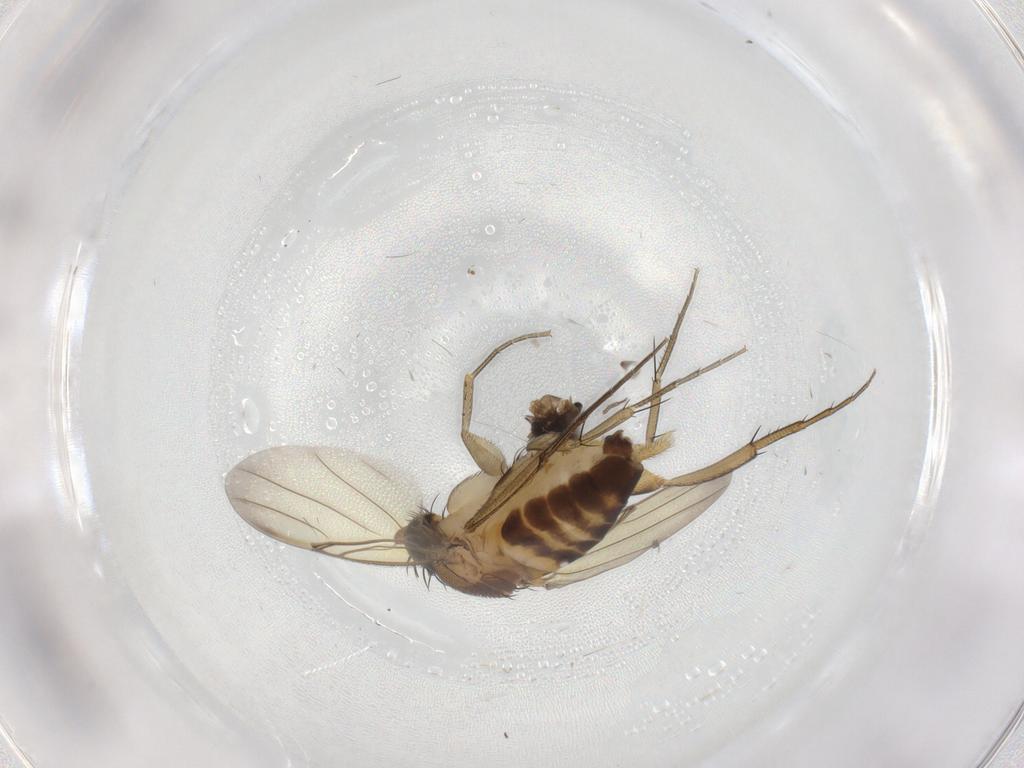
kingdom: Animalia
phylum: Arthropoda
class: Insecta
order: Diptera
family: Phoridae
